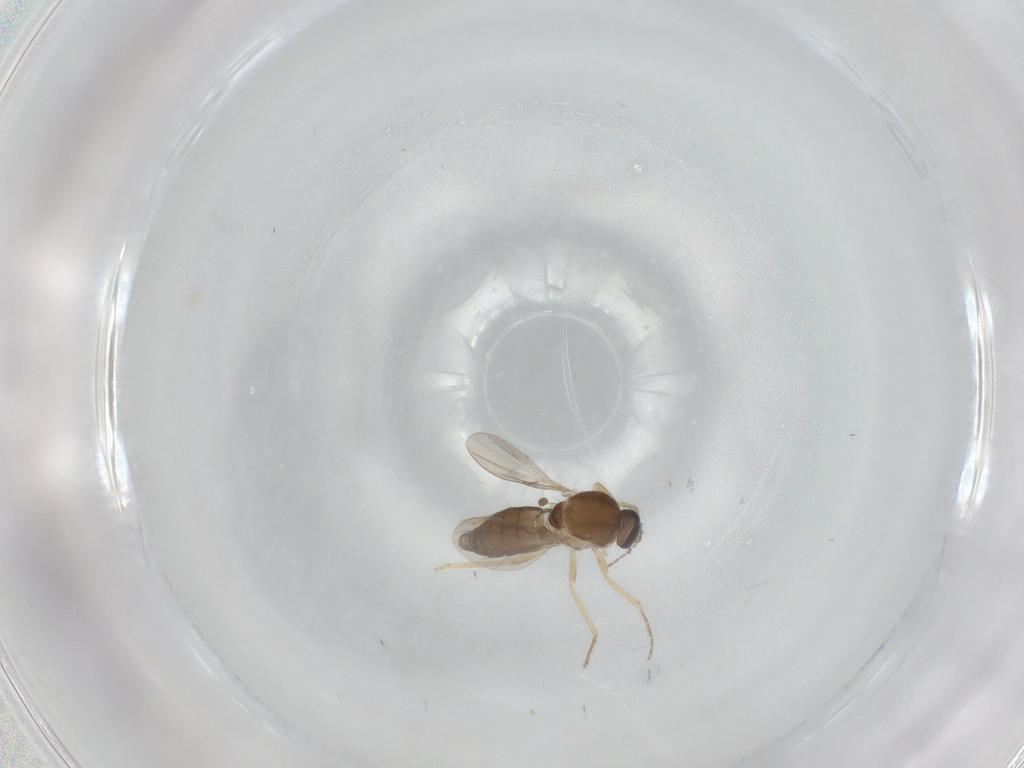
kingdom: Animalia
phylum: Arthropoda
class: Insecta
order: Diptera
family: Ceratopogonidae
